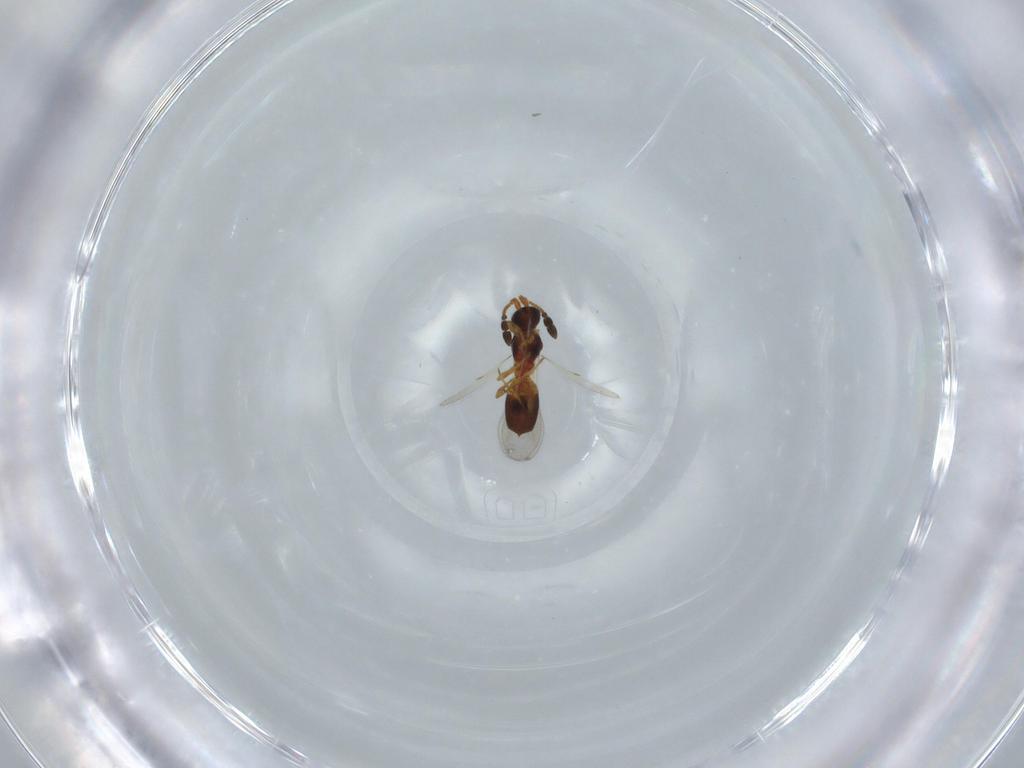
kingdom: Animalia
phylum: Arthropoda
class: Insecta
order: Hymenoptera
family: Diapriidae
